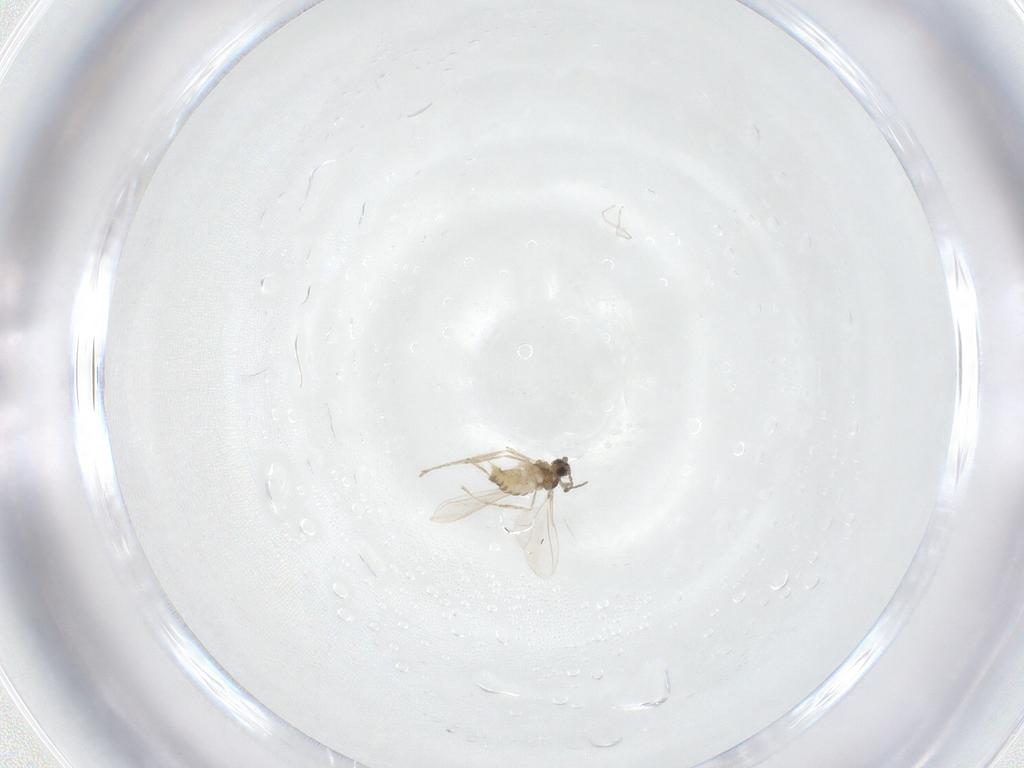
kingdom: Animalia
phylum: Arthropoda
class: Insecta
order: Diptera
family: Cecidomyiidae
